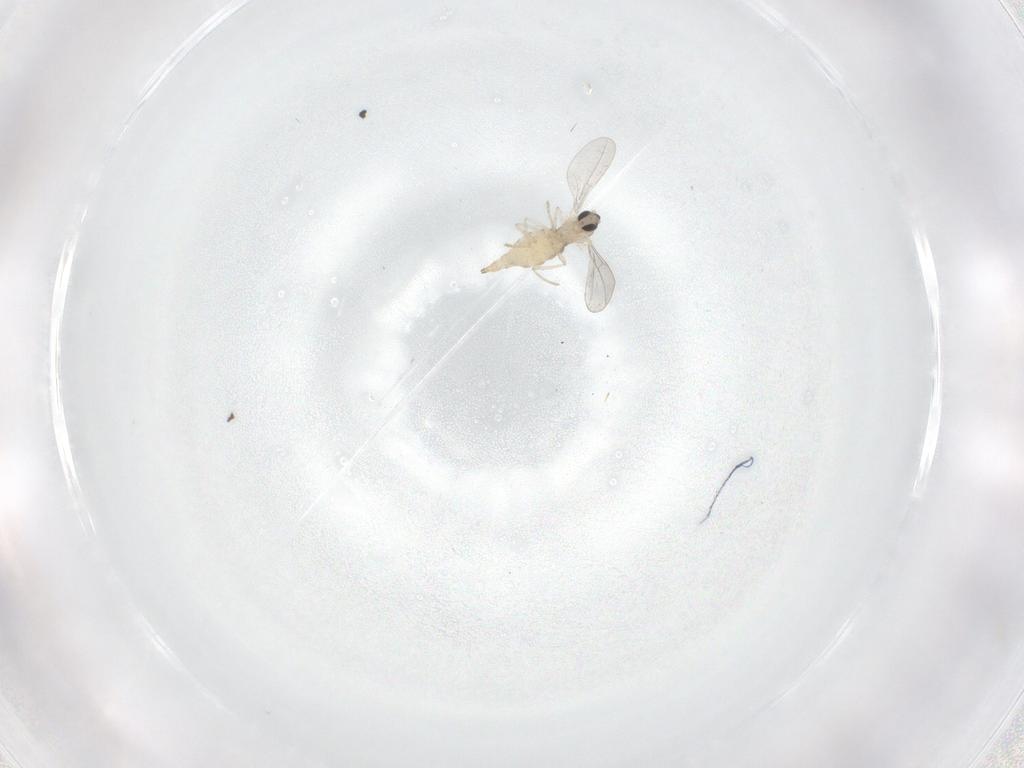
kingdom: Animalia
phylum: Arthropoda
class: Insecta
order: Diptera
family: Cecidomyiidae
